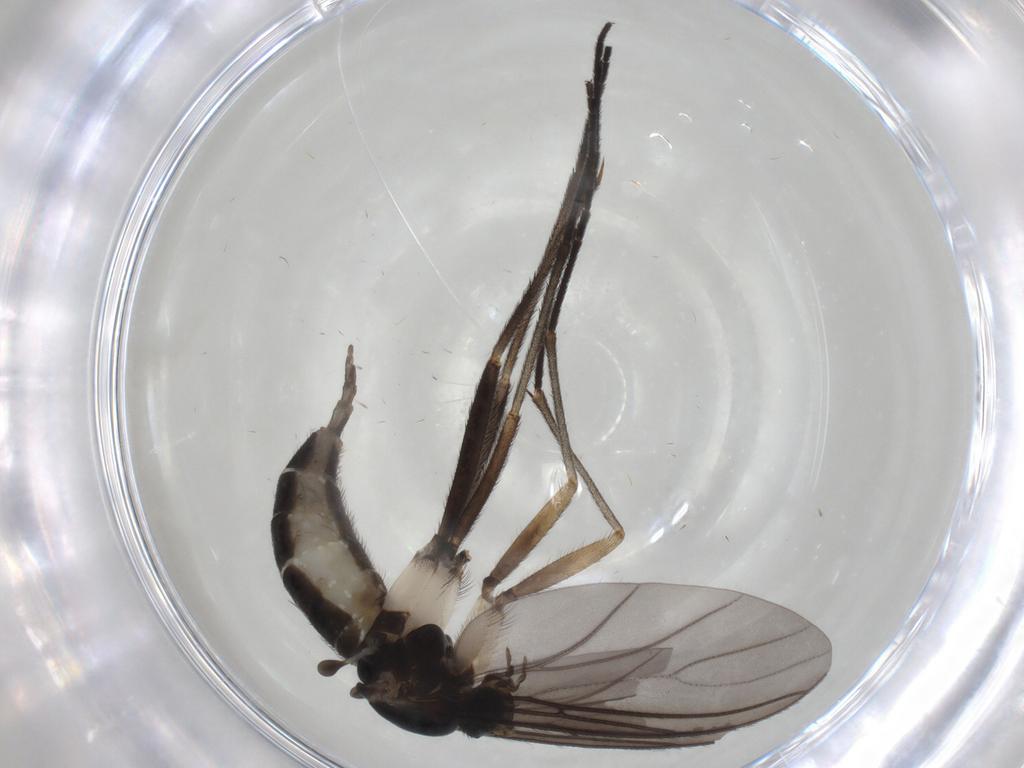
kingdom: Animalia
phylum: Arthropoda
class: Insecta
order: Diptera
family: Sciaridae
